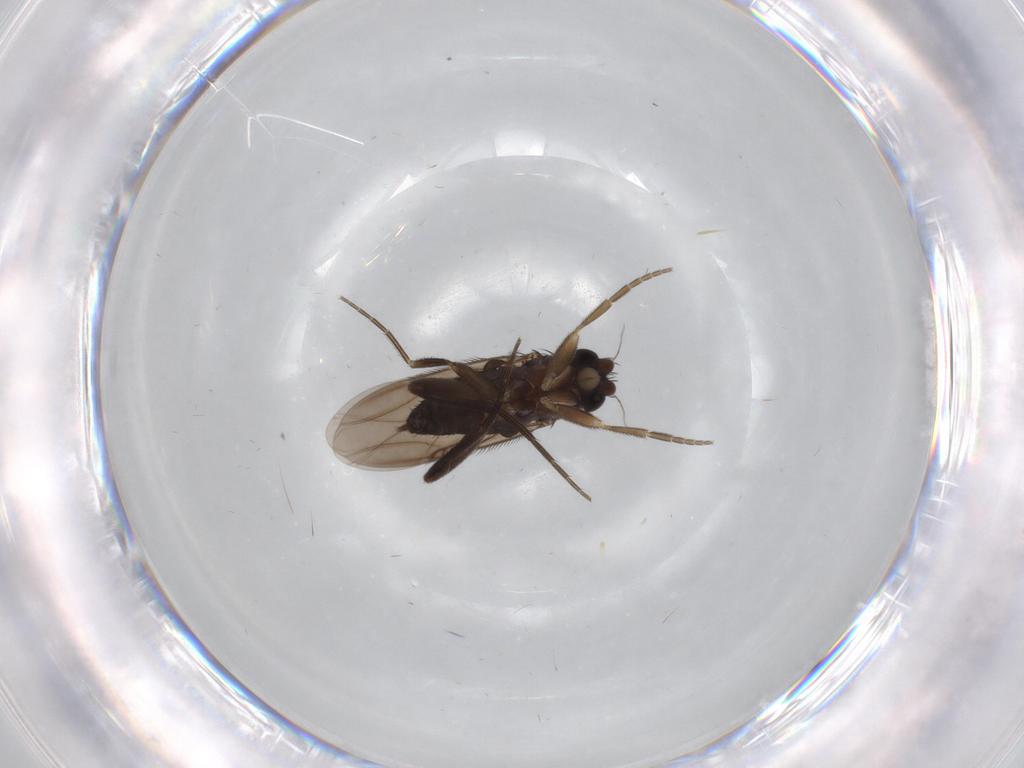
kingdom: Animalia
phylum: Arthropoda
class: Insecta
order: Diptera
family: Phoridae
